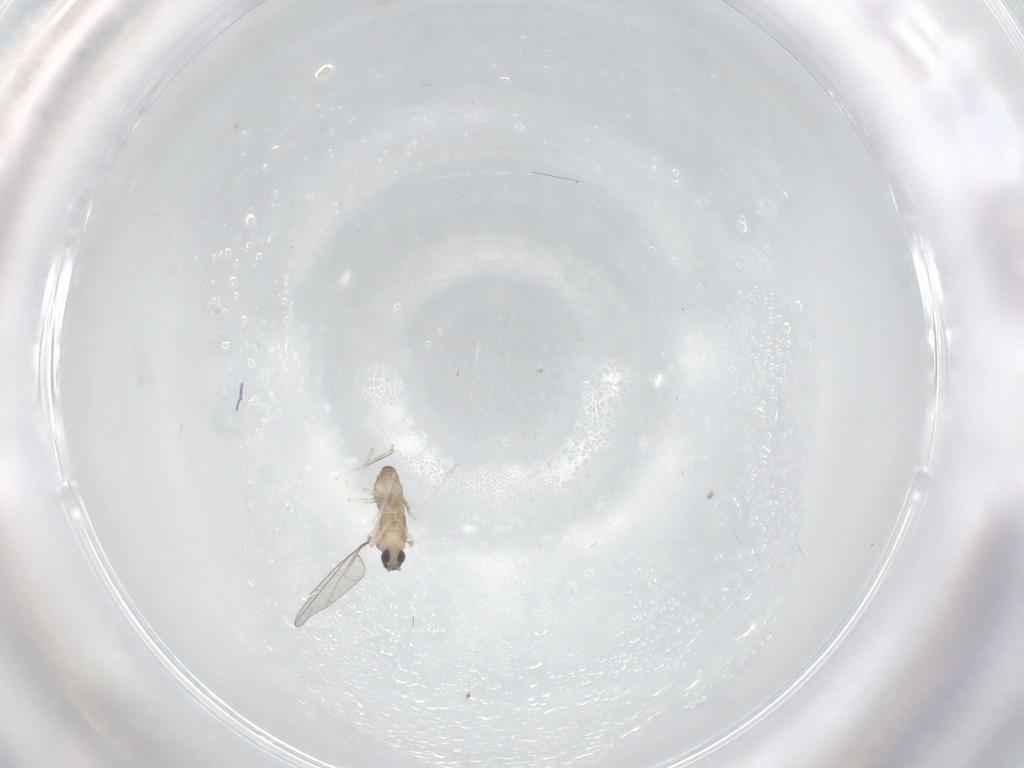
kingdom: Animalia
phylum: Arthropoda
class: Insecta
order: Diptera
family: Cecidomyiidae
